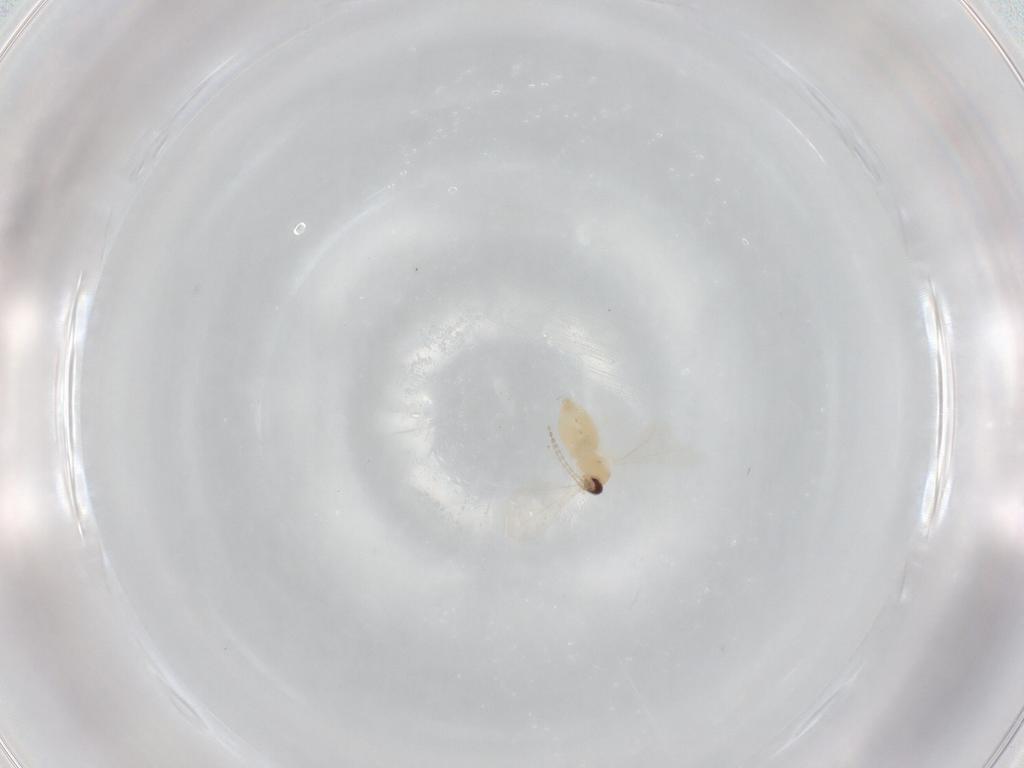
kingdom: Animalia
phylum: Arthropoda
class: Insecta
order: Diptera
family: Cecidomyiidae
